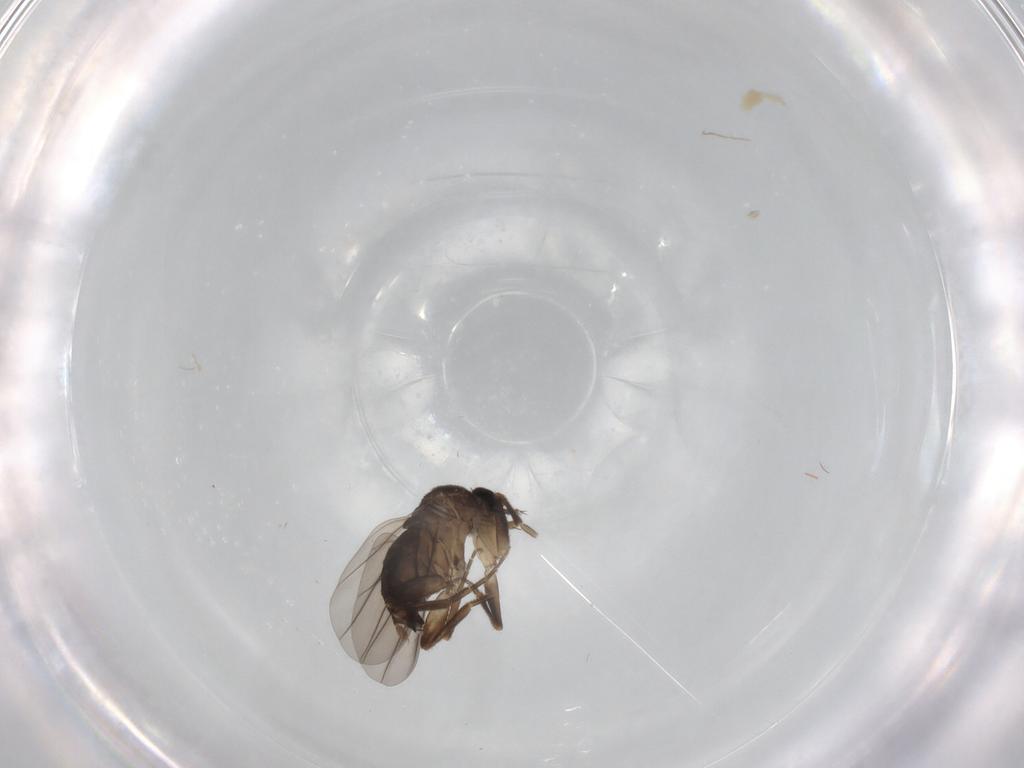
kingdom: Animalia
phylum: Arthropoda
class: Insecta
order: Diptera
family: Phoridae
